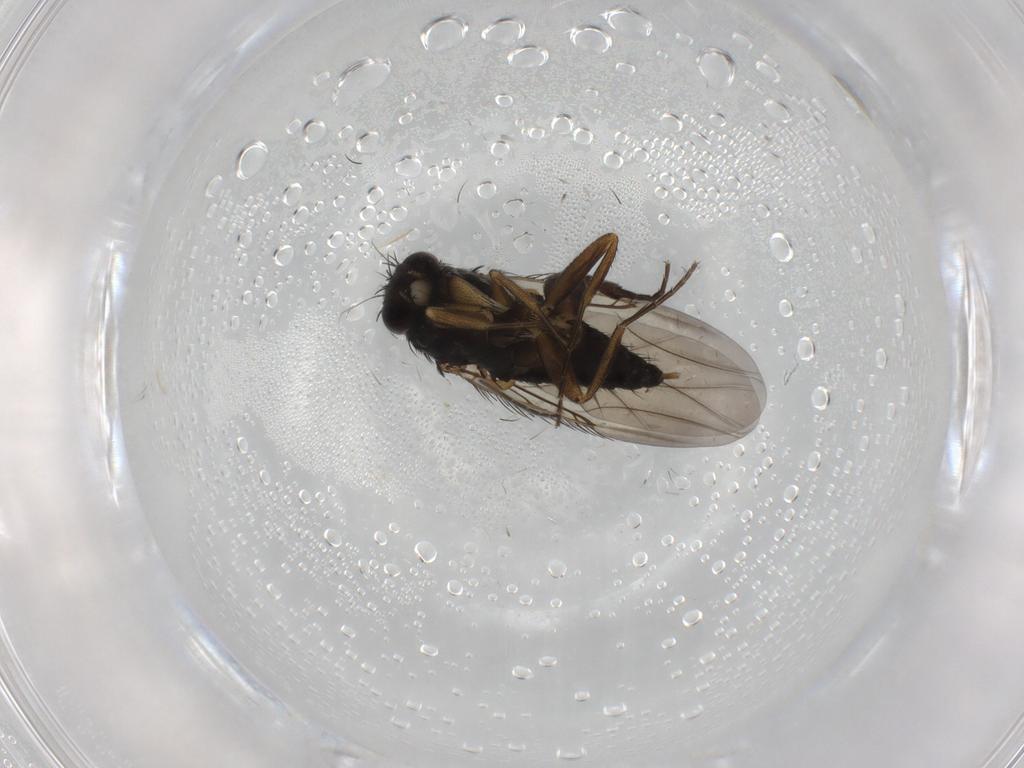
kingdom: Animalia
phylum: Arthropoda
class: Insecta
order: Diptera
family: Phoridae
